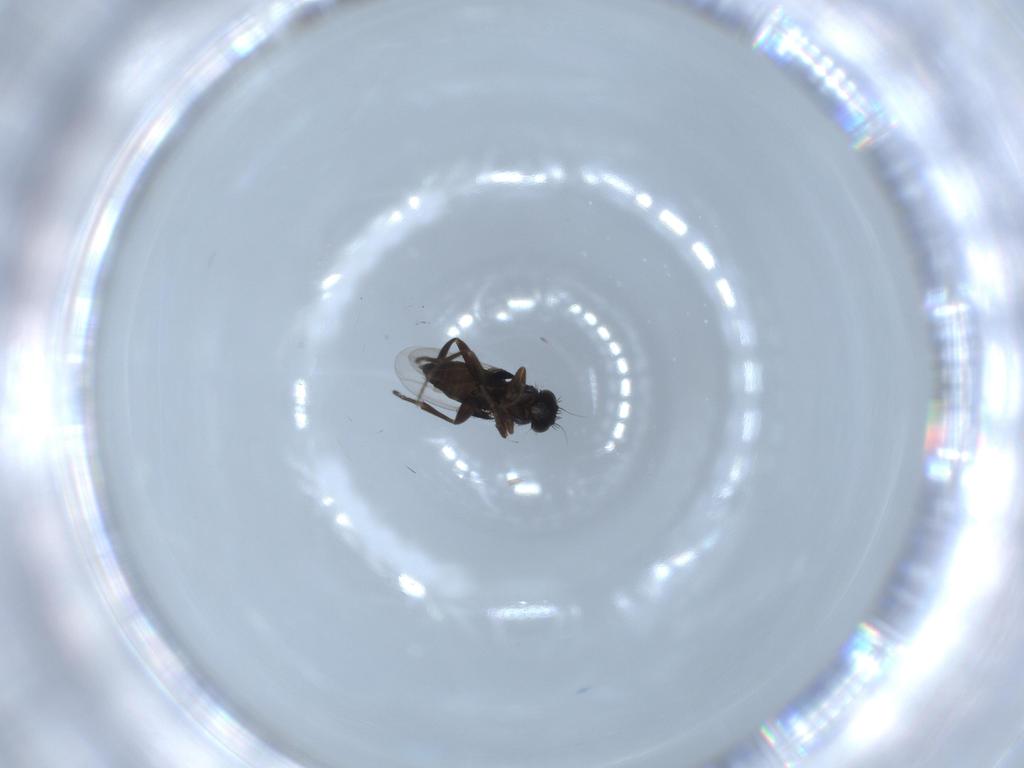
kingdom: Animalia
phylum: Arthropoda
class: Insecta
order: Diptera
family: Phoridae
